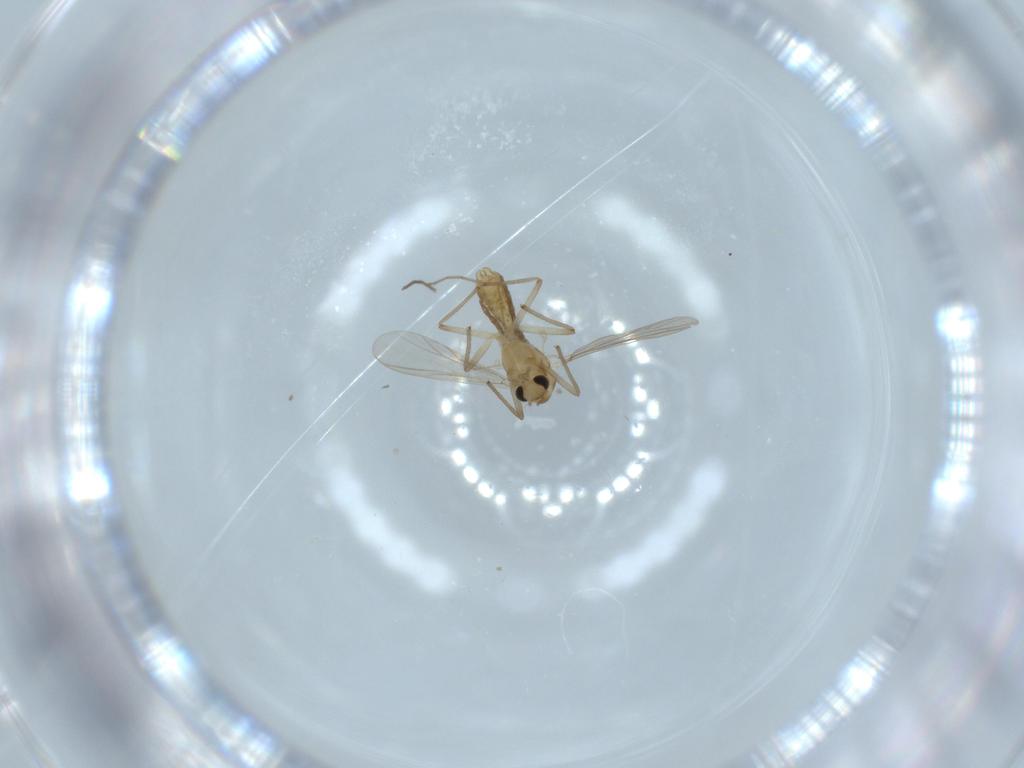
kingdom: Animalia
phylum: Arthropoda
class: Insecta
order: Diptera
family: Chironomidae
